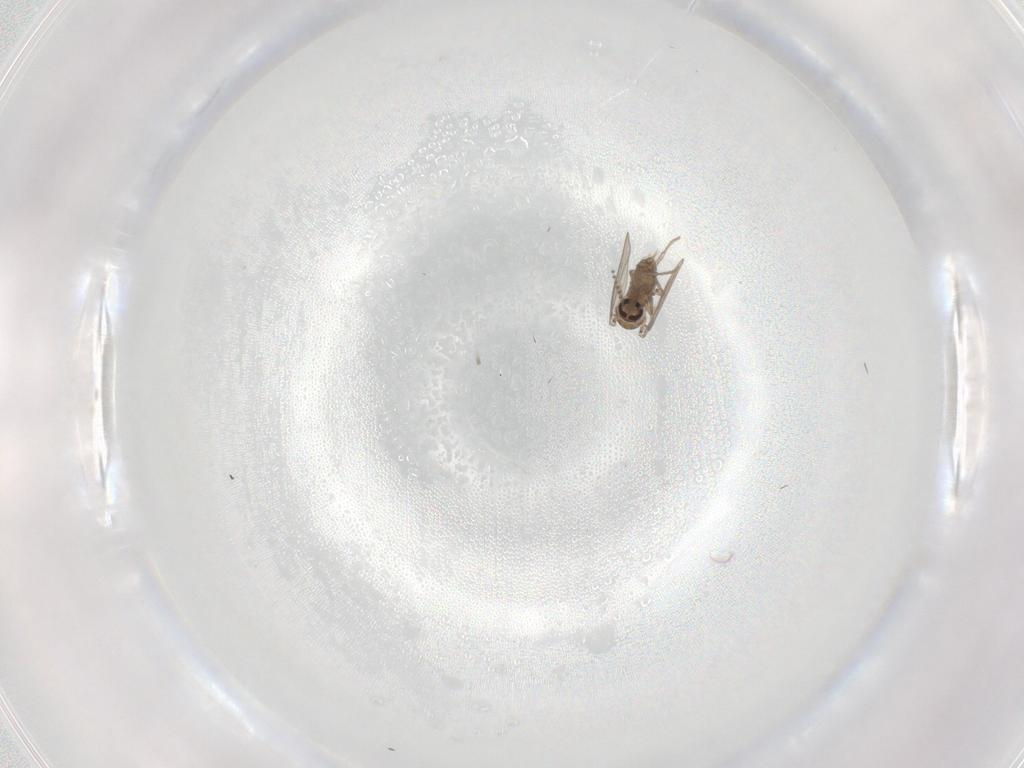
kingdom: Animalia
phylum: Arthropoda
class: Insecta
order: Diptera
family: Psychodidae
